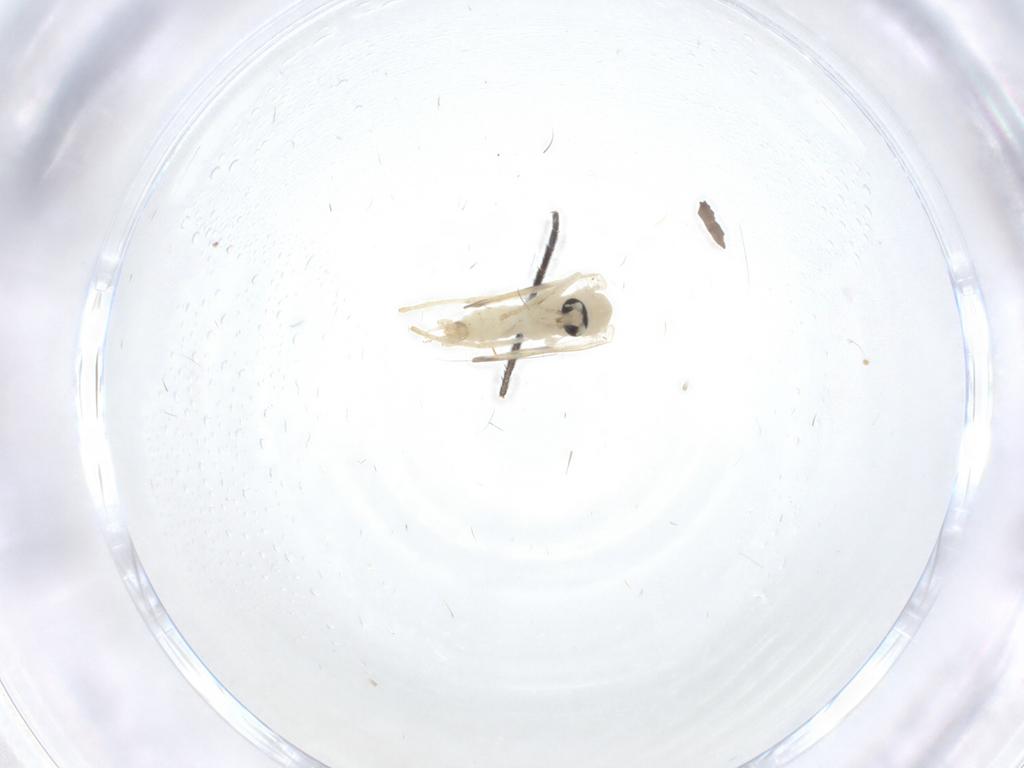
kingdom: Animalia
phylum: Arthropoda
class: Insecta
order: Diptera
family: Psychodidae
